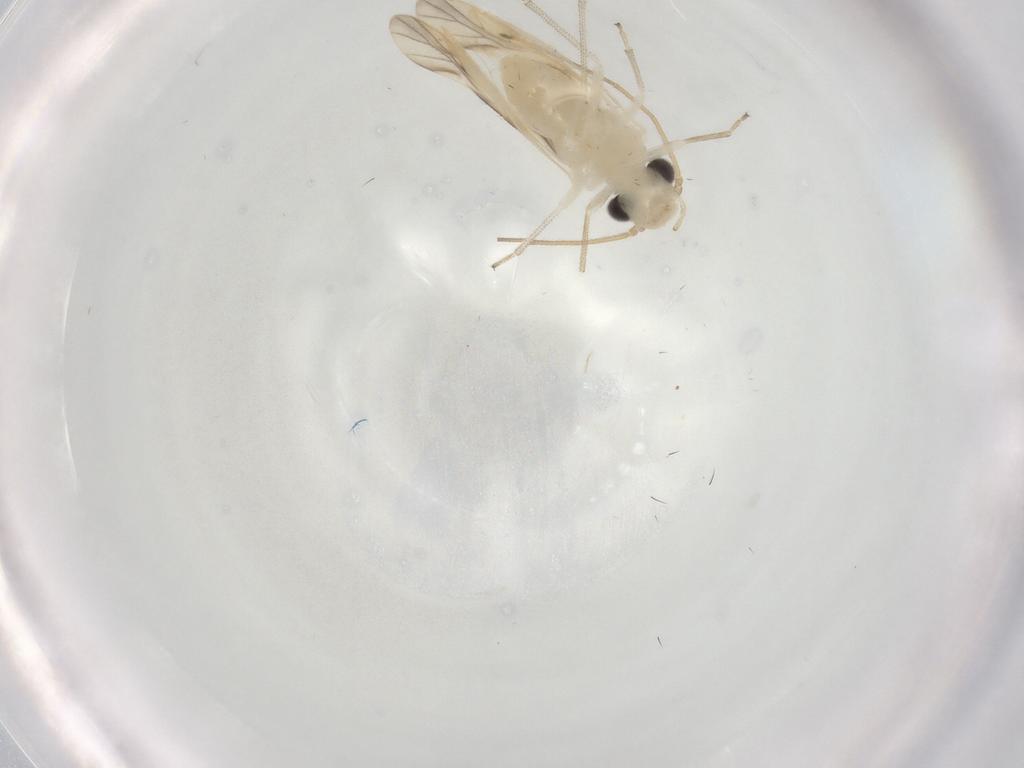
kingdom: Animalia
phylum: Arthropoda
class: Insecta
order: Psocodea
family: Caeciliusidae
